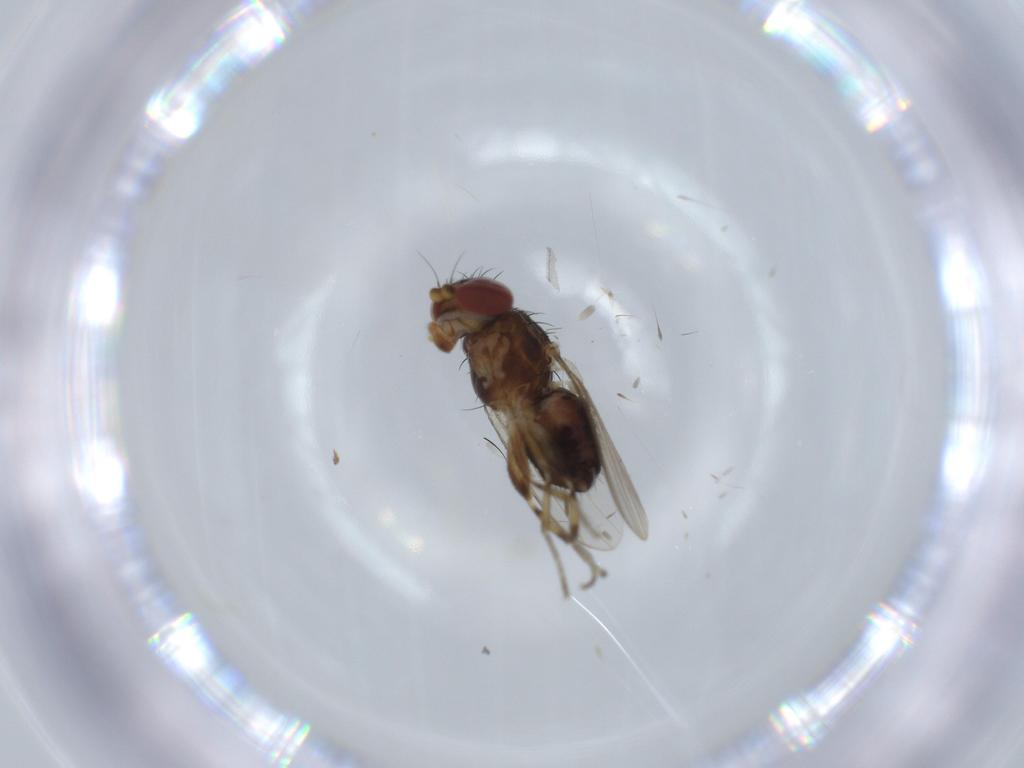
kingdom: Animalia
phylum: Arthropoda
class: Insecta
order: Diptera
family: Heleomyzidae
